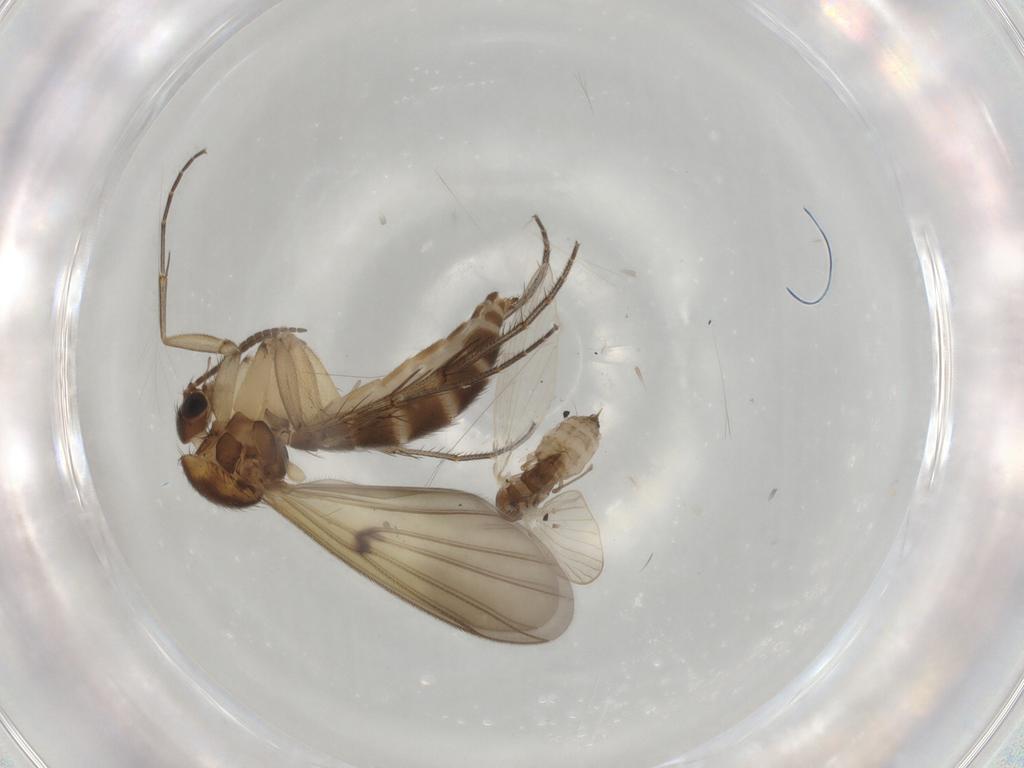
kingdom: Animalia
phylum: Arthropoda
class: Insecta
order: Diptera
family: Mycetophilidae
